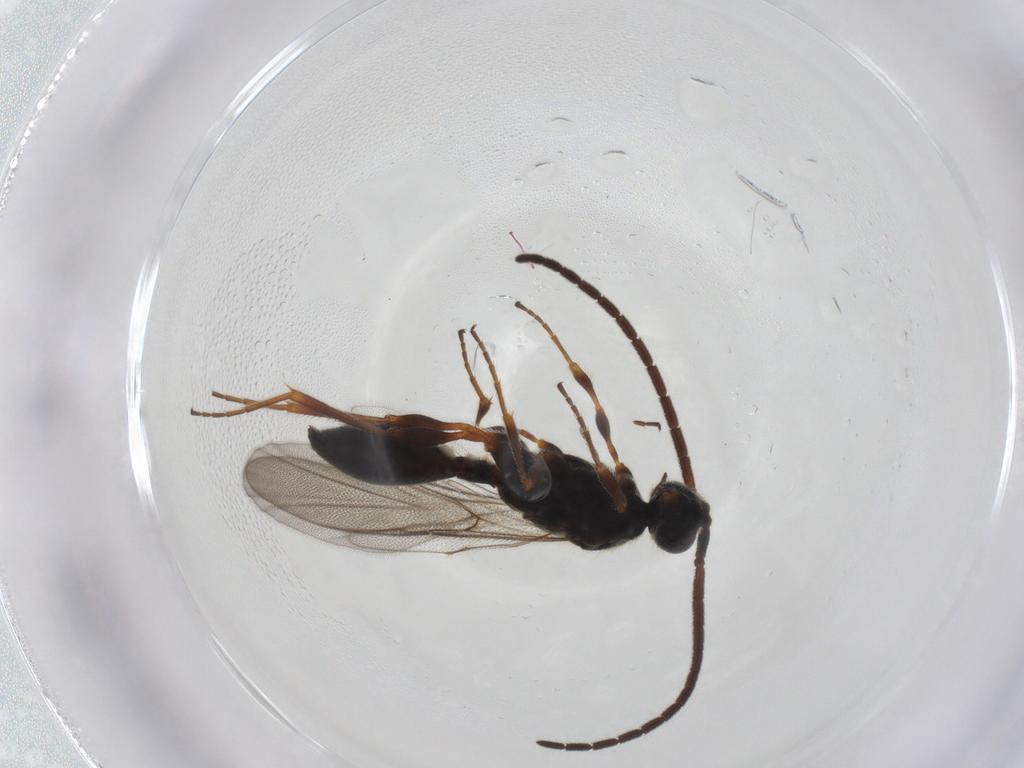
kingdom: Animalia
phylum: Arthropoda
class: Insecta
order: Hymenoptera
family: Diapriidae
